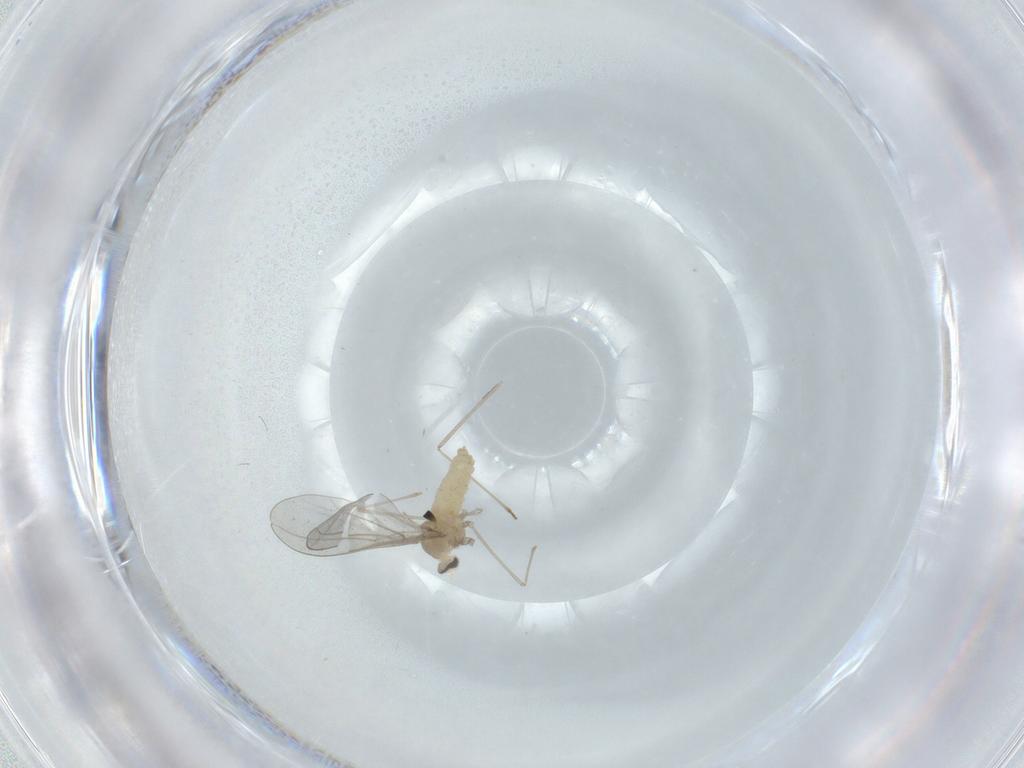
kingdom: Animalia
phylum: Arthropoda
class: Insecta
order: Diptera
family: Cecidomyiidae
